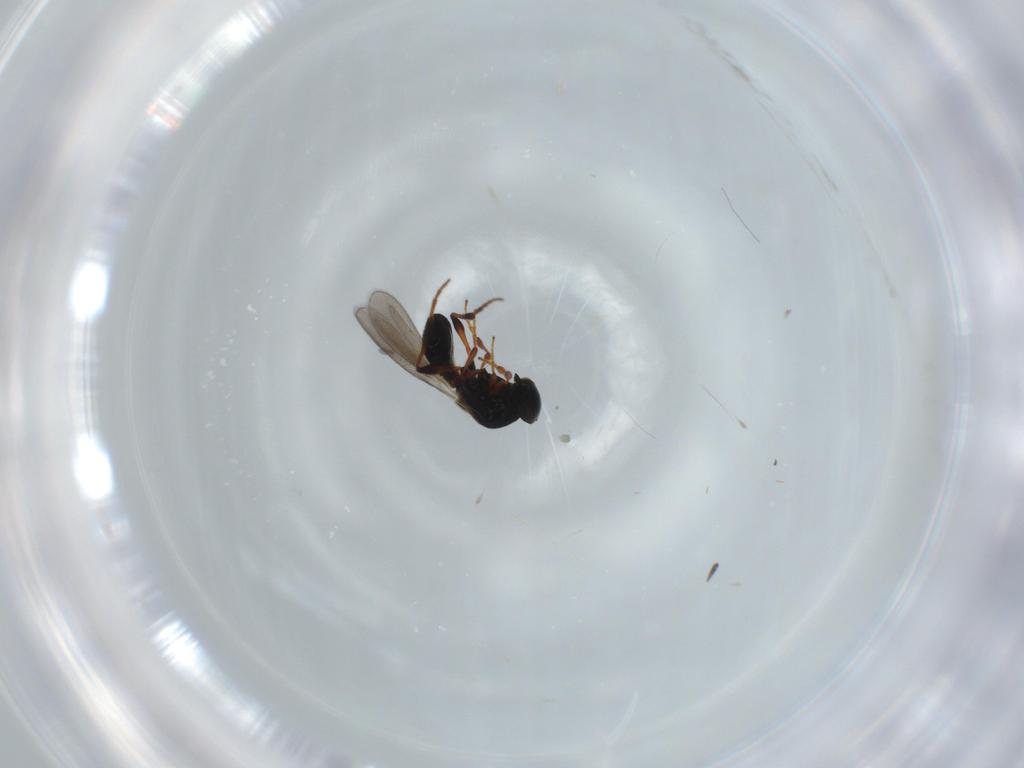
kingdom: Animalia
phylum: Arthropoda
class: Insecta
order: Hymenoptera
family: Platygastridae
